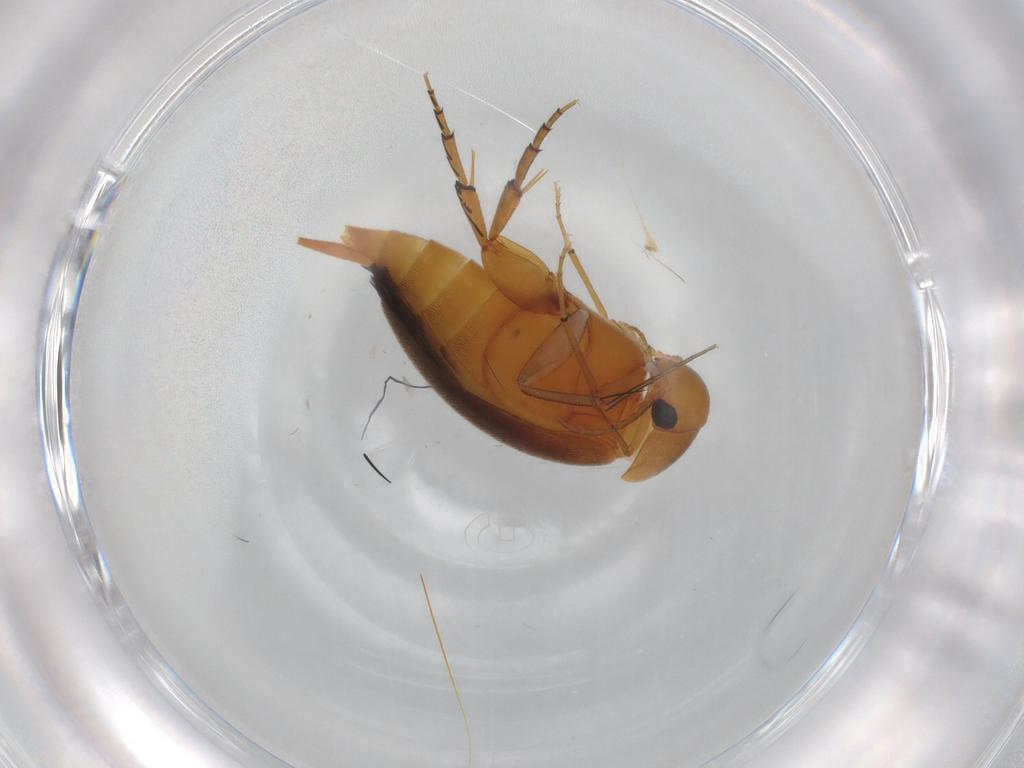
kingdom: Animalia
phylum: Arthropoda
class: Insecta
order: Coleoptera
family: Mordellidae
